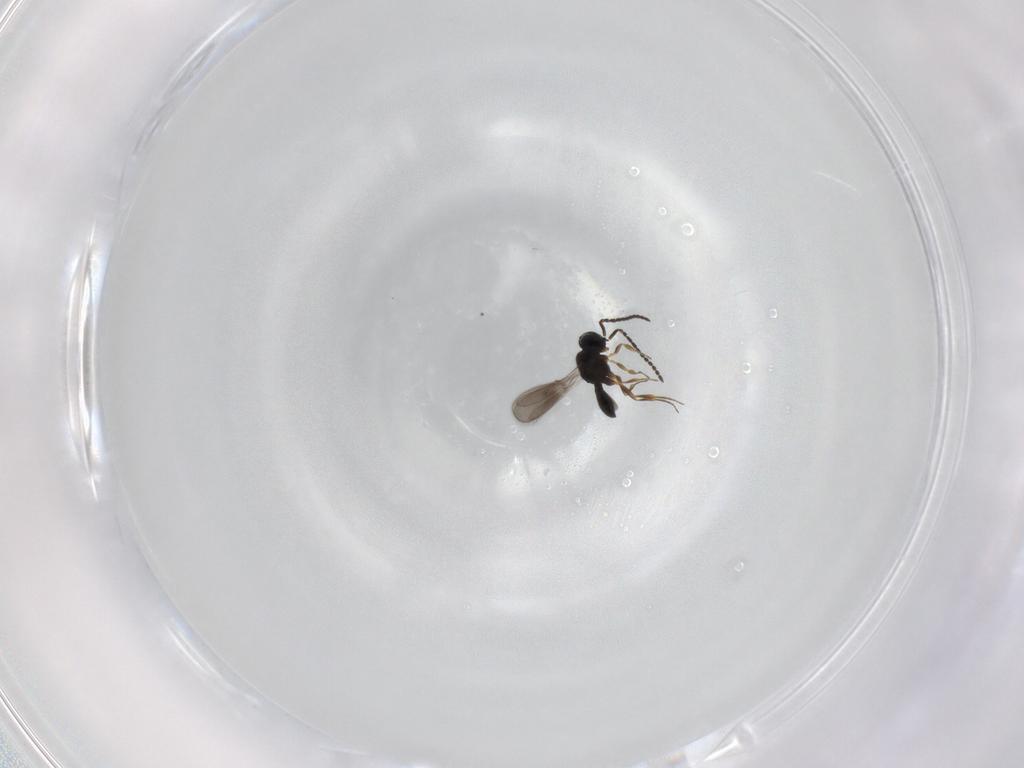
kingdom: Animalia
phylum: Arthropoda
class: Insecta
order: Hymenoptera
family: Scelionidae
